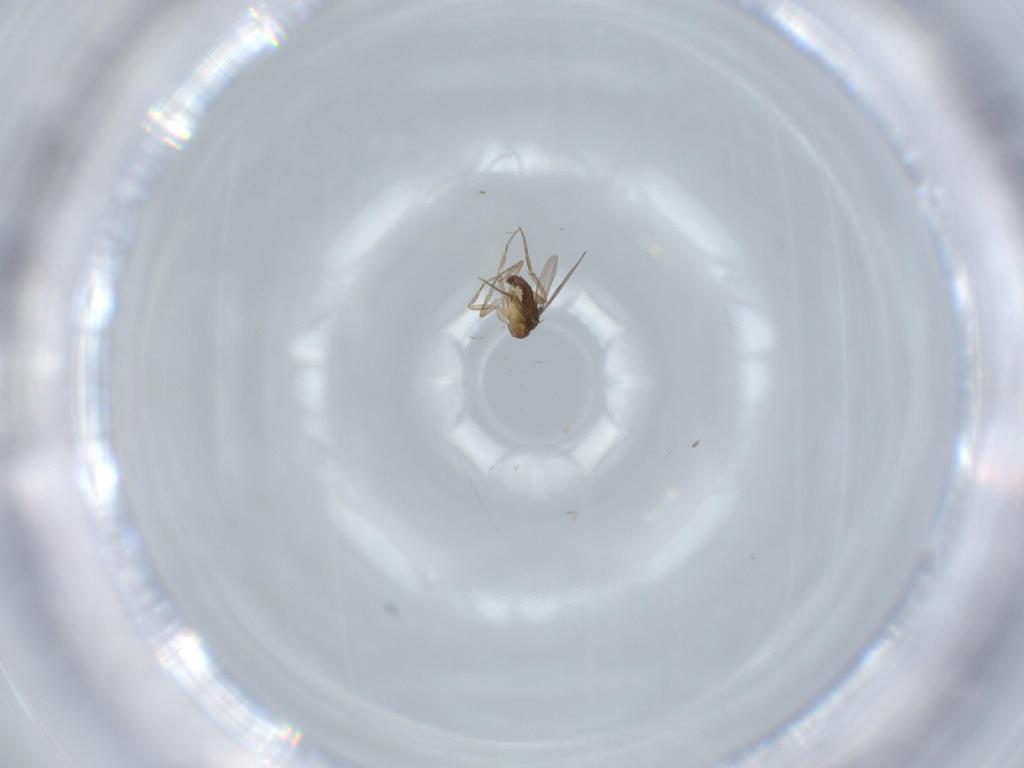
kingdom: Animalia
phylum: Arthropoda
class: Insecta
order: Diptera
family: Phoridae
